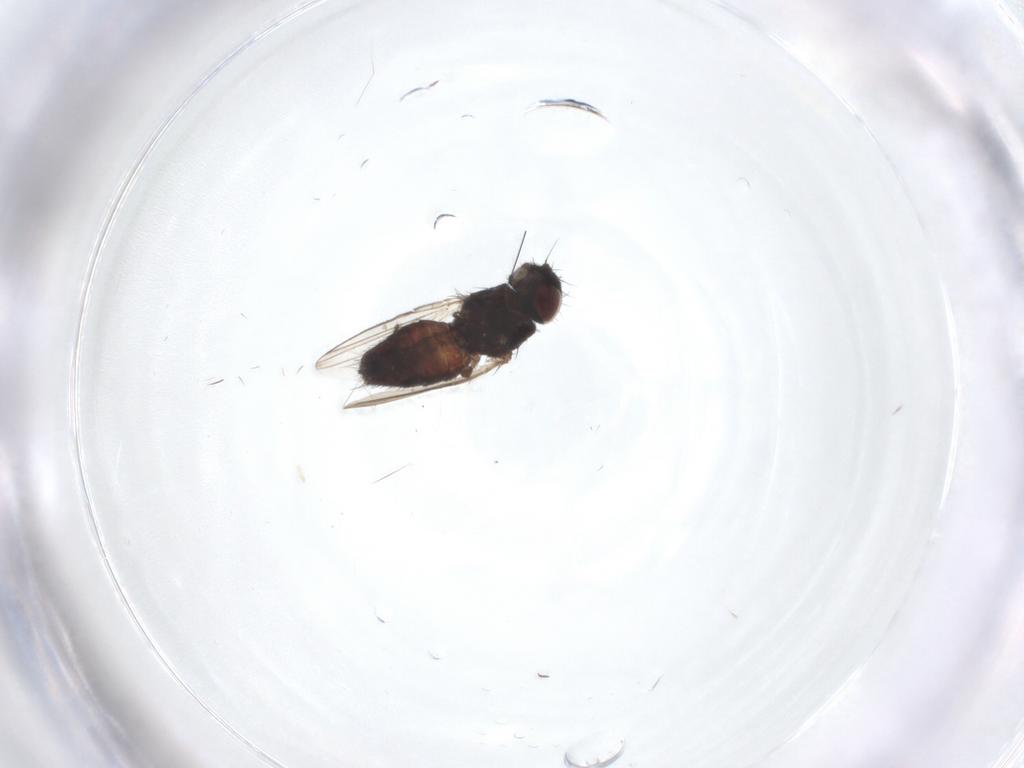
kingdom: Animalia
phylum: Arthropoda
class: Insecta
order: Diptera
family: Milichiidae
